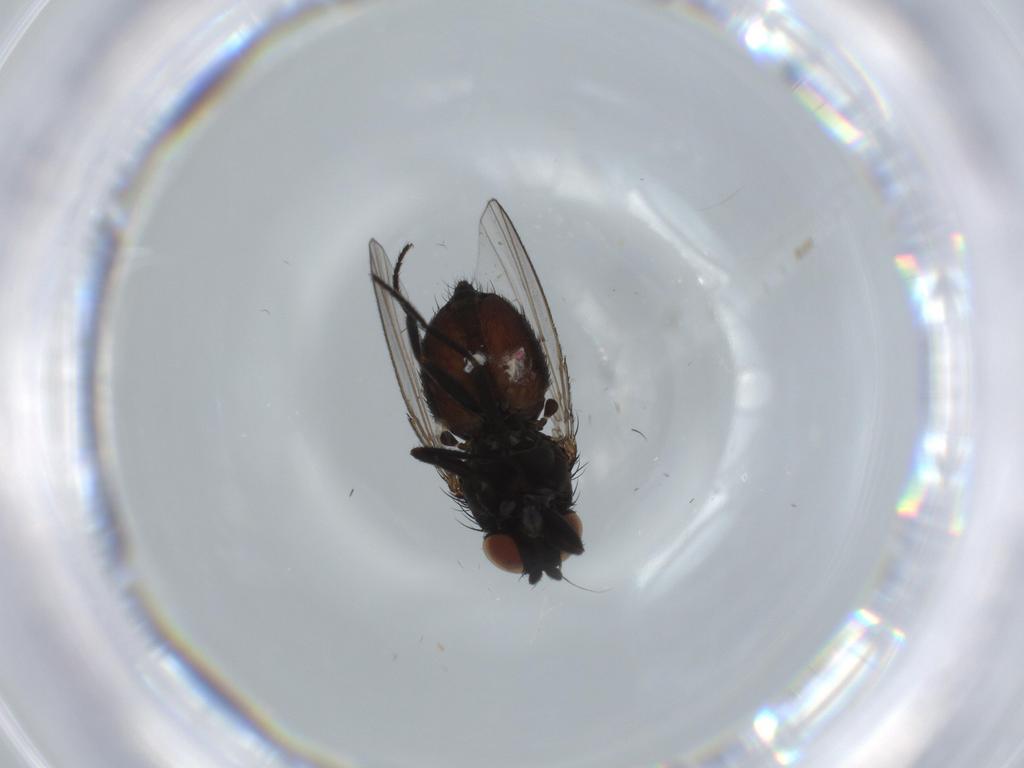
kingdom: Animalia
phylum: Arthropoda
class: Insecta
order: Diptera
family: Milichiidae
